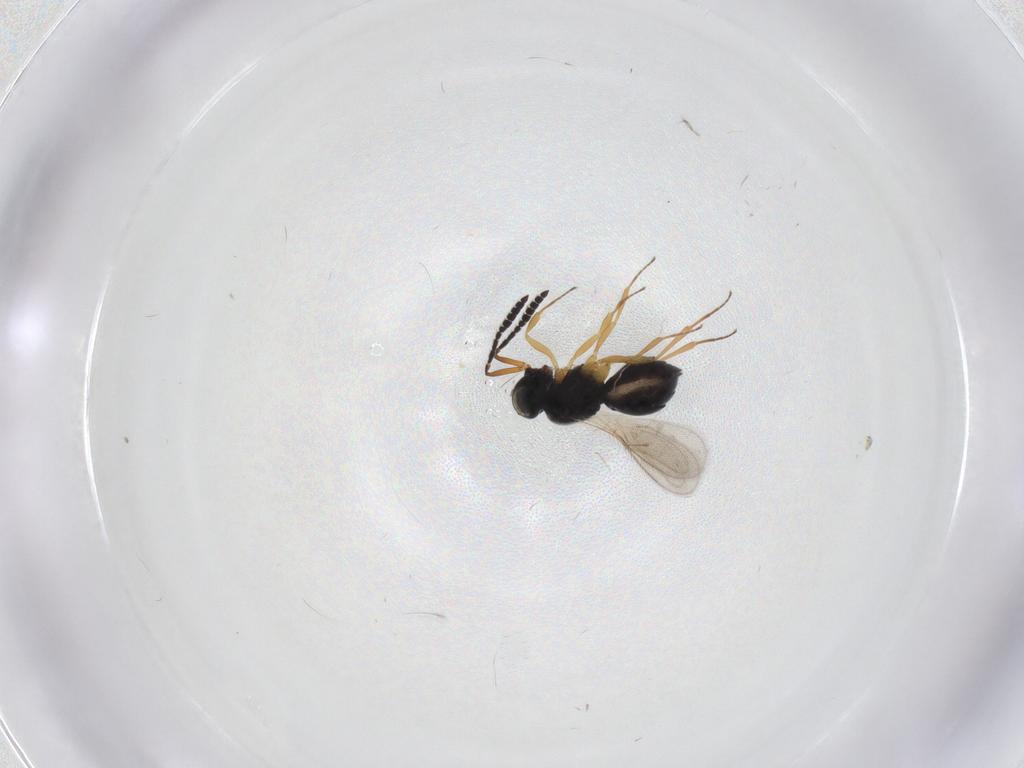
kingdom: Animalia
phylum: Arthropoda
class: Insecta
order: Hymenoptera
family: Scelionidae
